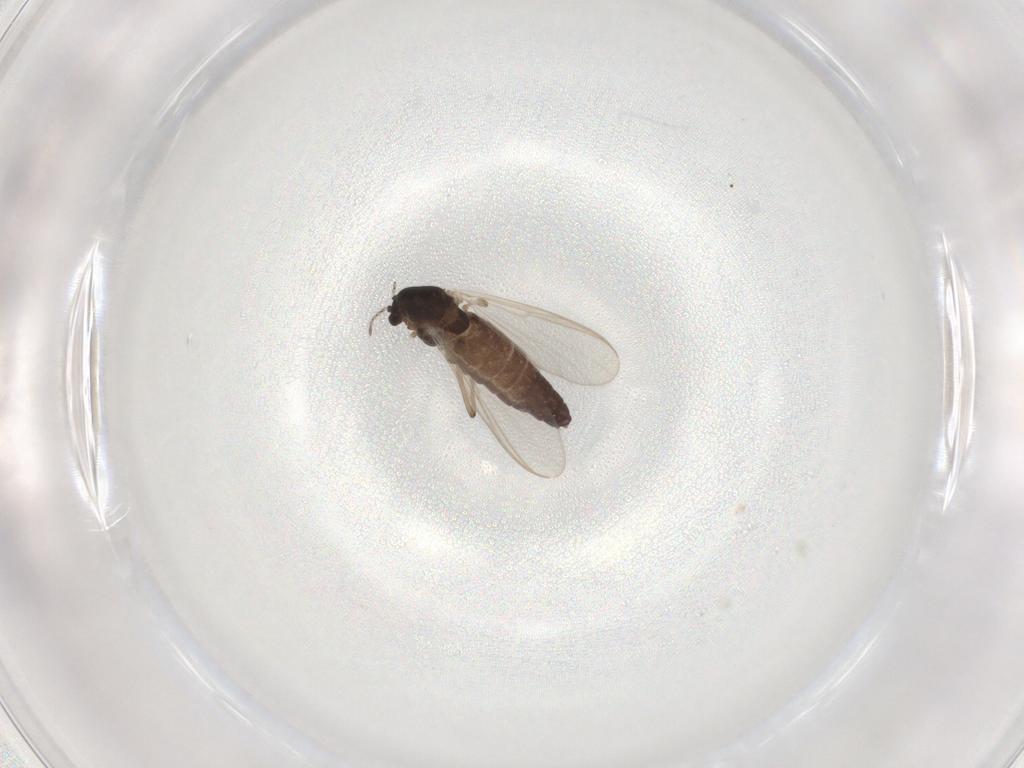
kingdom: Animalia
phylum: Arthropoda
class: Insecta
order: Diptera
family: Chironomidae
